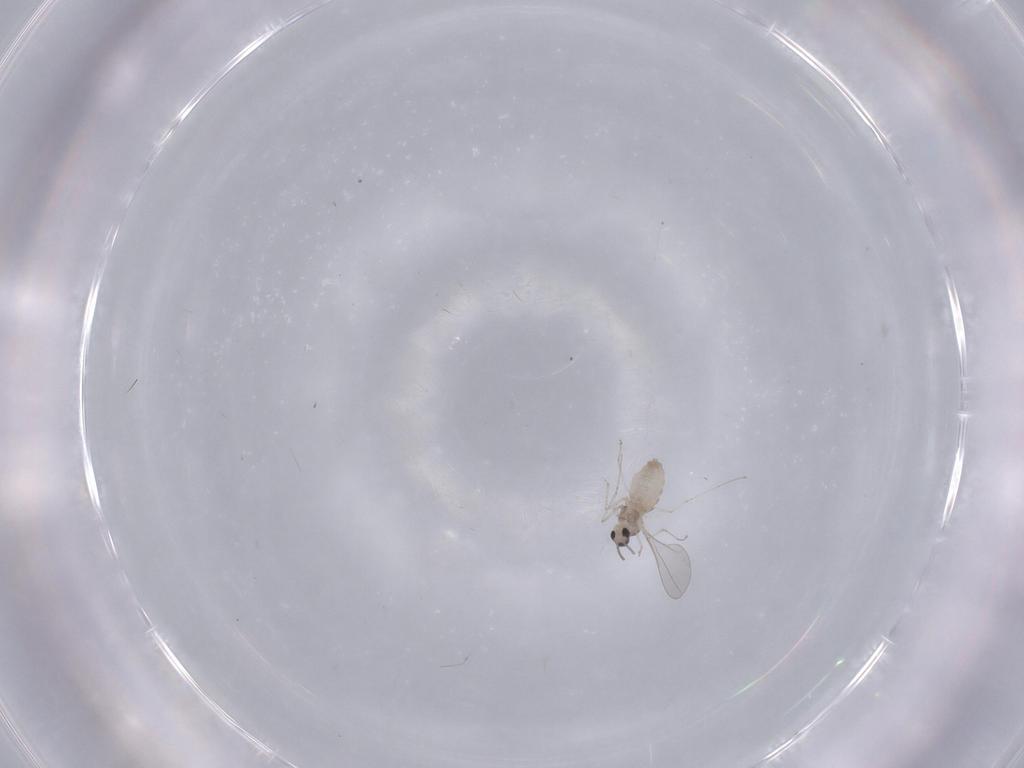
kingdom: Animalia
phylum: Arthropoda
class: Insecta
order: Diptera
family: Cecidomyiidae
